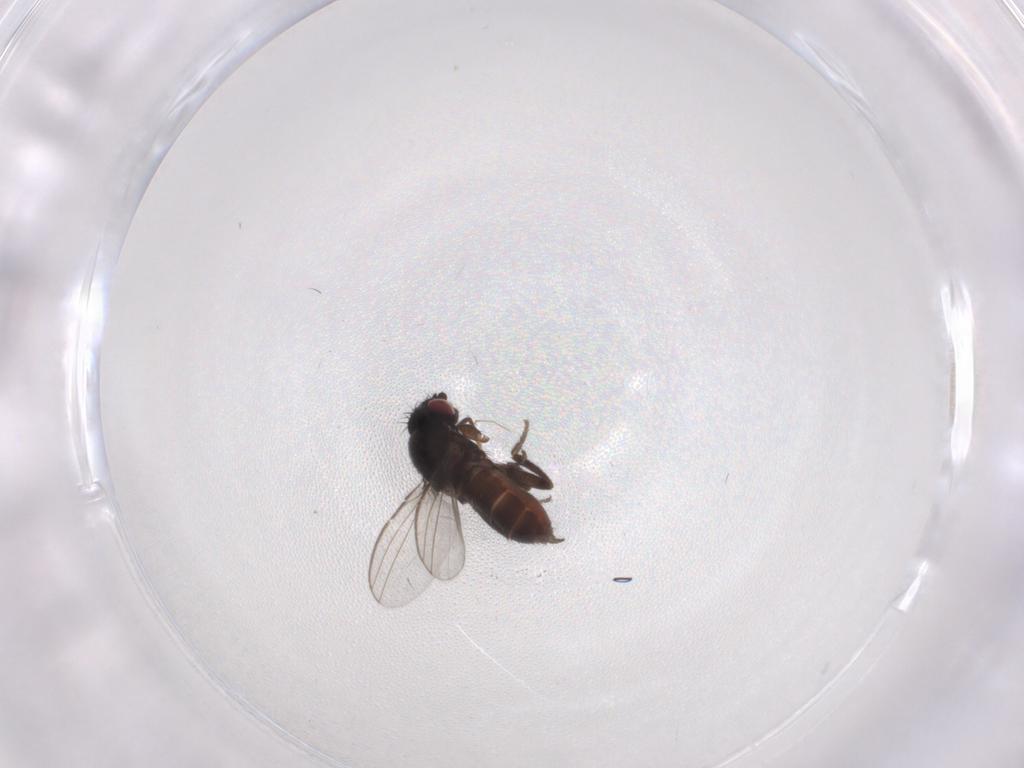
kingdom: Animalia
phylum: Arthropoda
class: Insecta
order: Diptera
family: Milichiidae
